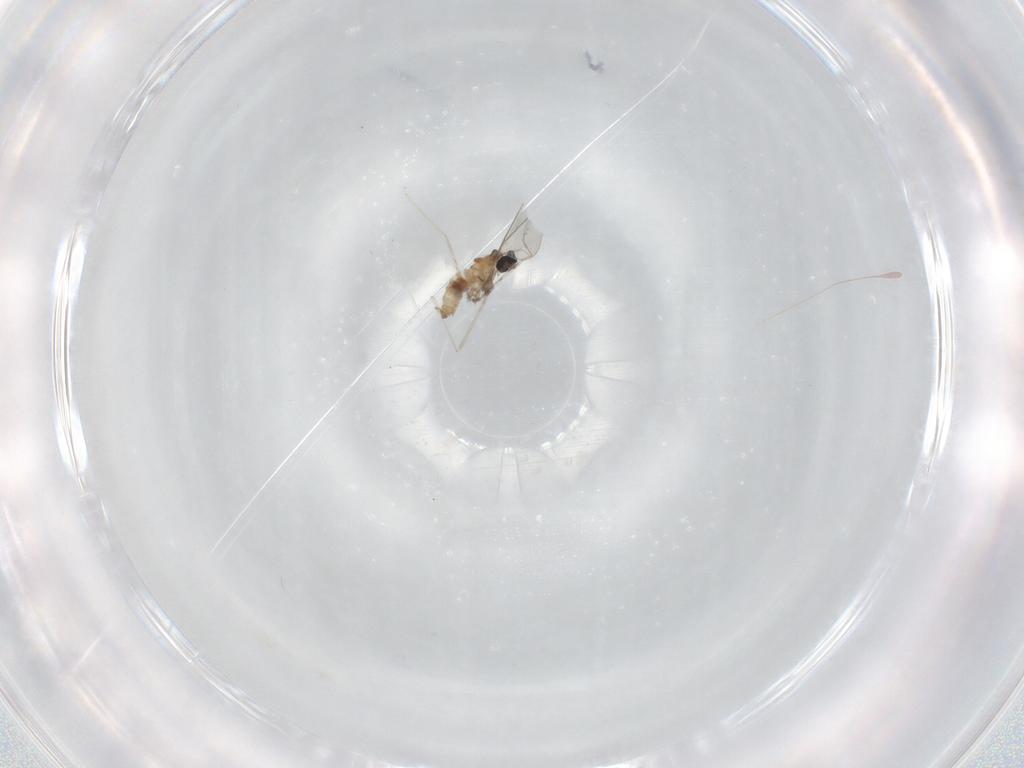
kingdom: Animalia
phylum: Arthropoda
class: Insecta
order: Diptera
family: Cecidomyiidae
